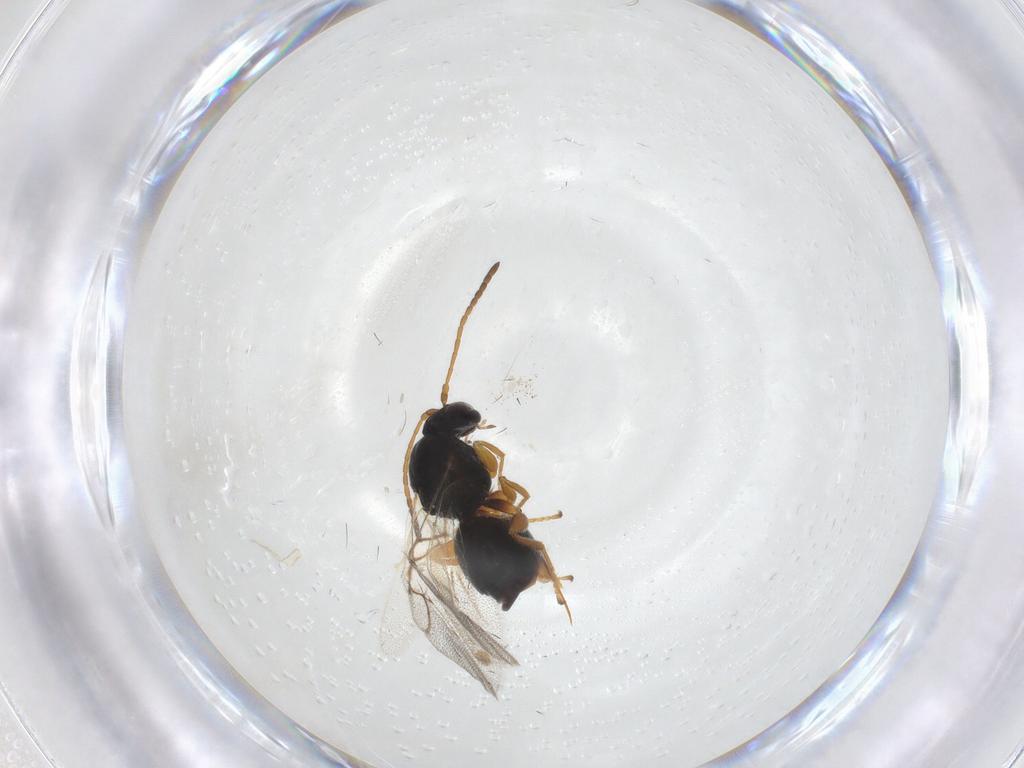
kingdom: Animalia
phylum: Arthropoda
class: Insecta
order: Hymenoptera
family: Cynipidae
